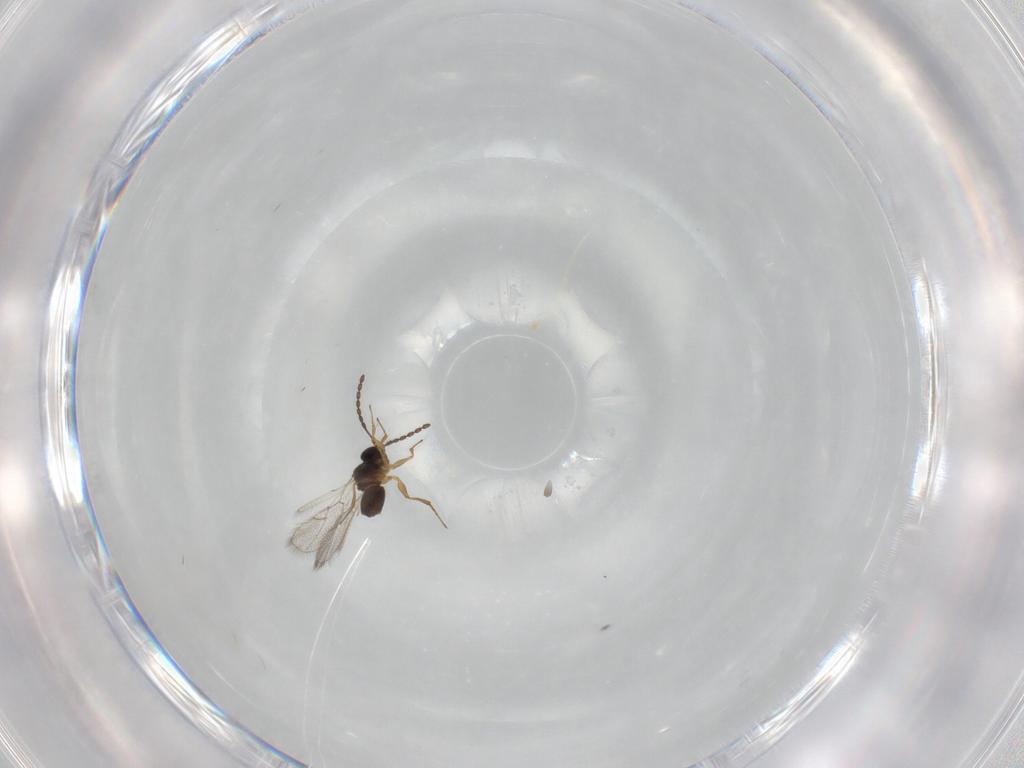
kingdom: Animalia
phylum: Arthropoda
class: Insecta
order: Hymenoptera
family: Figitidae
